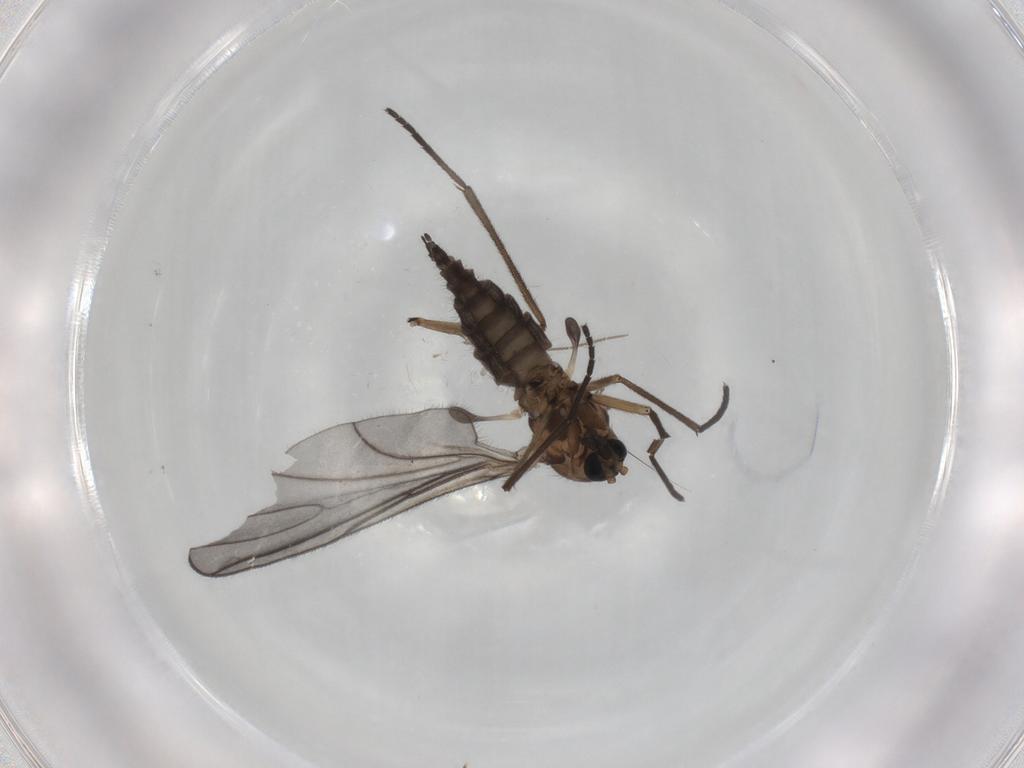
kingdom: Animalia
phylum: Arthropoda
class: Insecta
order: Diptera
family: Sciaridae
